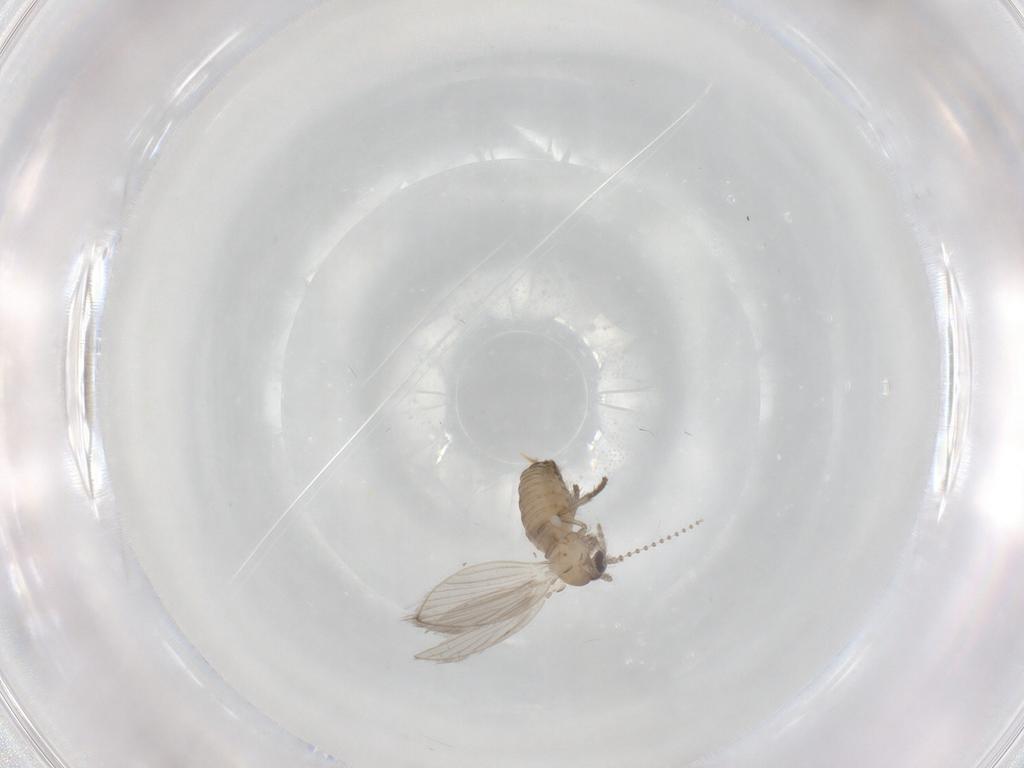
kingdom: Animalia
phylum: Arthropoda
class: Insecta
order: Diptera
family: Psychodidae
